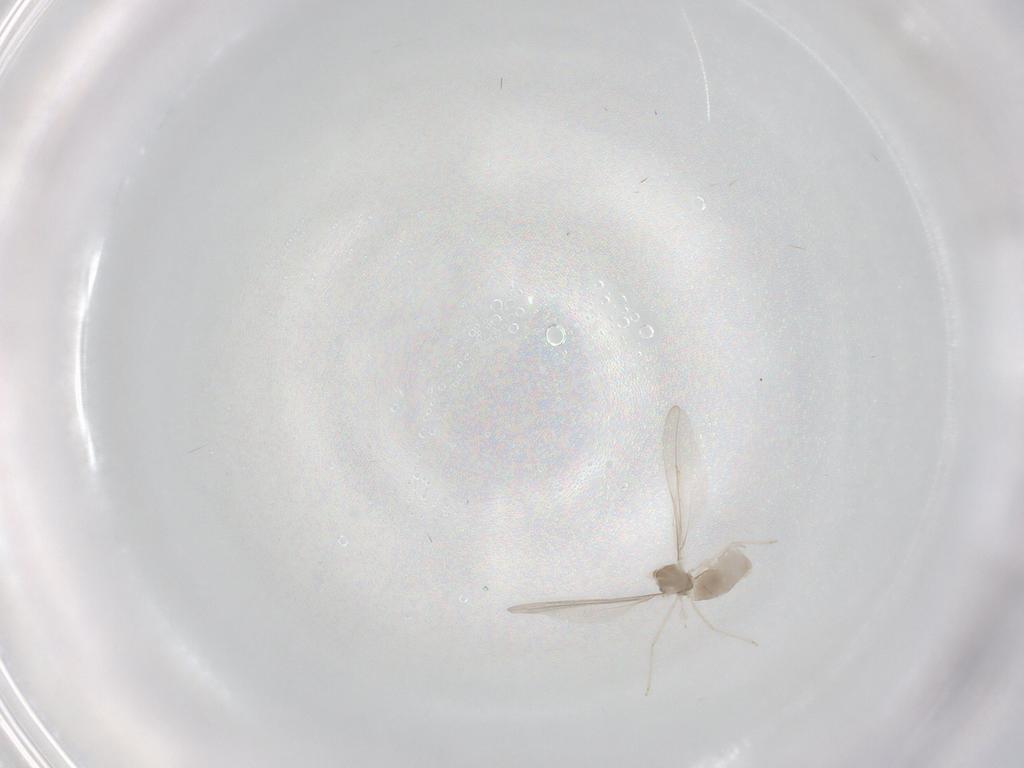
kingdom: Animalia
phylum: Arthropoda
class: Insecta
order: Diptera
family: Cecidomyiidae
